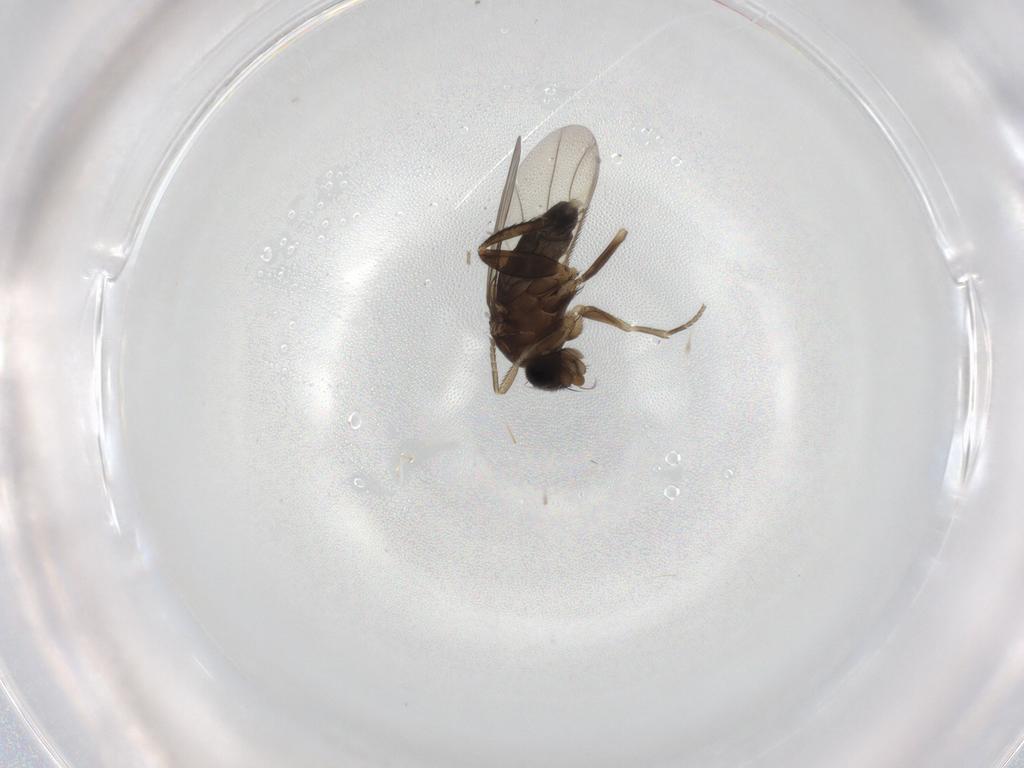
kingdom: Animalia
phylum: Arthropoda
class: Insecta
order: Diptera
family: Phoridae
